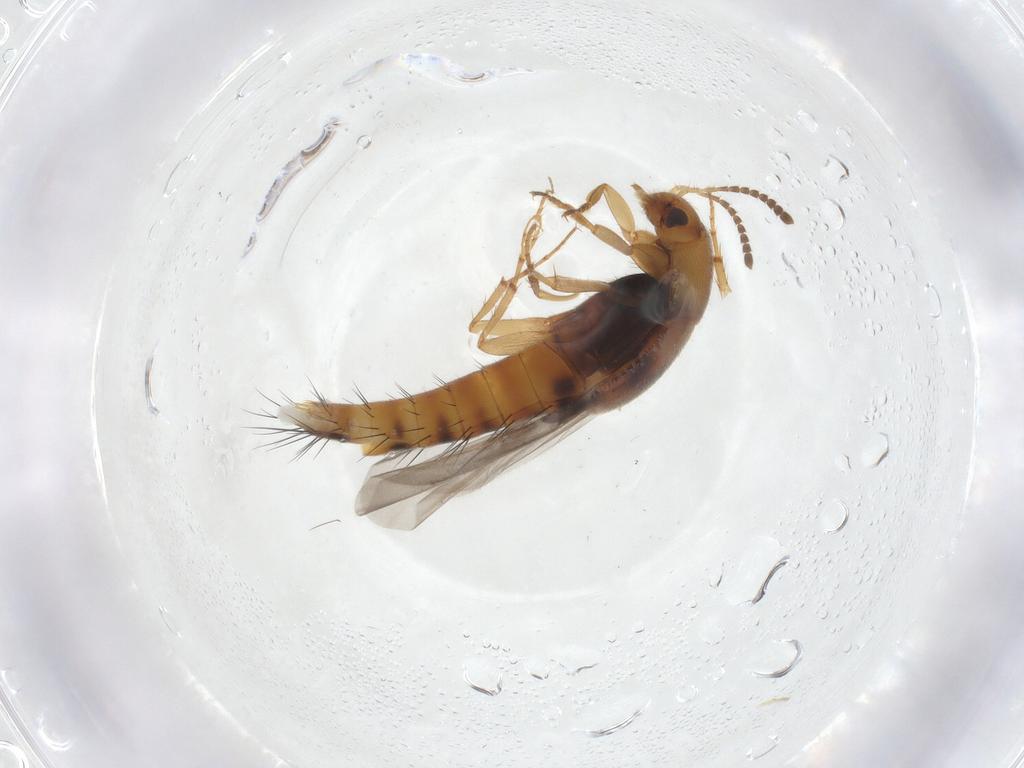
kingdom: Animalia
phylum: Arthropoda
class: Insecta
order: Coleoptera
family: Staphylinidae
